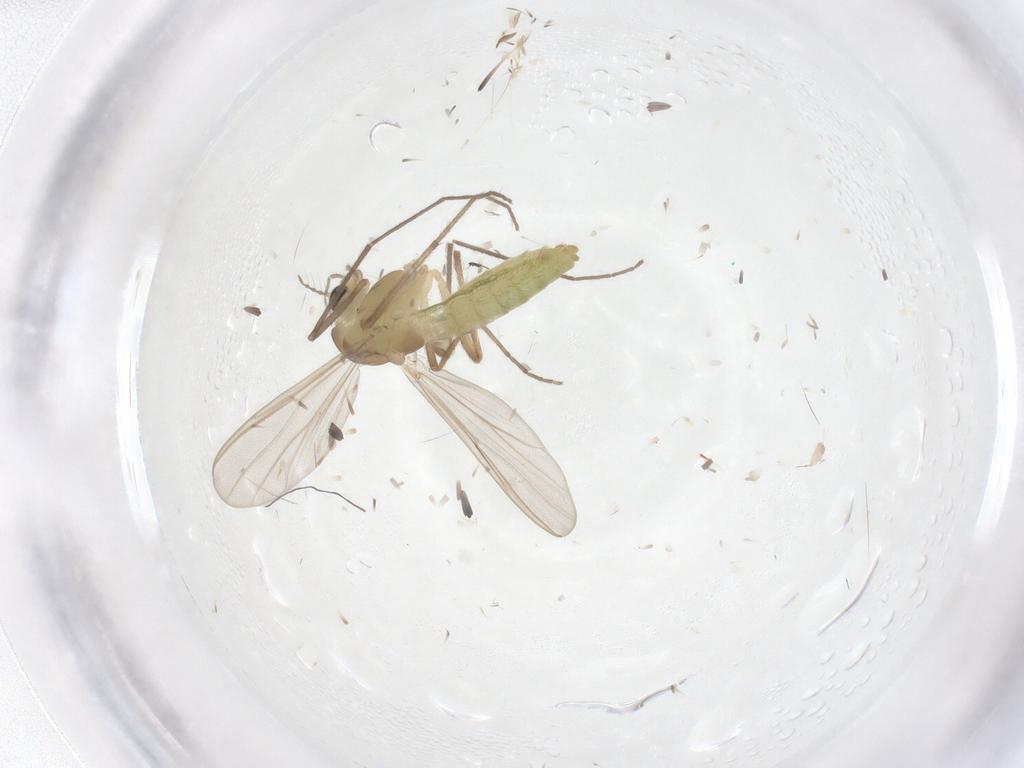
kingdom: Animalia
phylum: Arthropoda
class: Insecta
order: Diptera
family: Chironomidae
